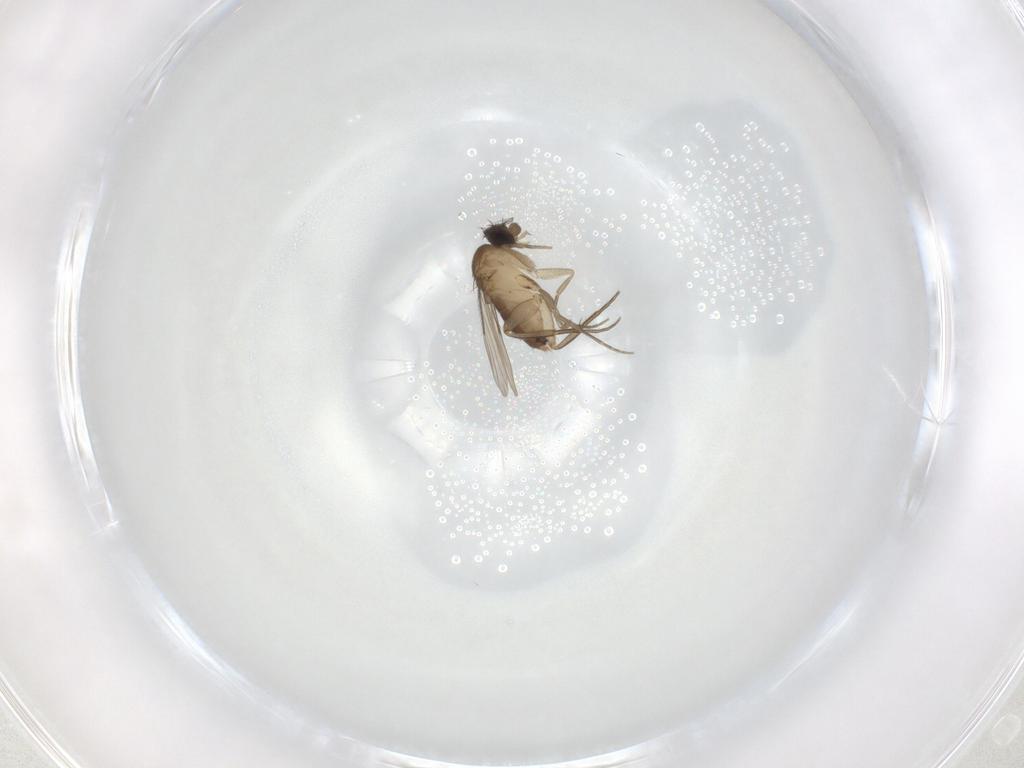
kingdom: Animalia
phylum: Arthropoda
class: Insecta
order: Diptera
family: Phoridae
